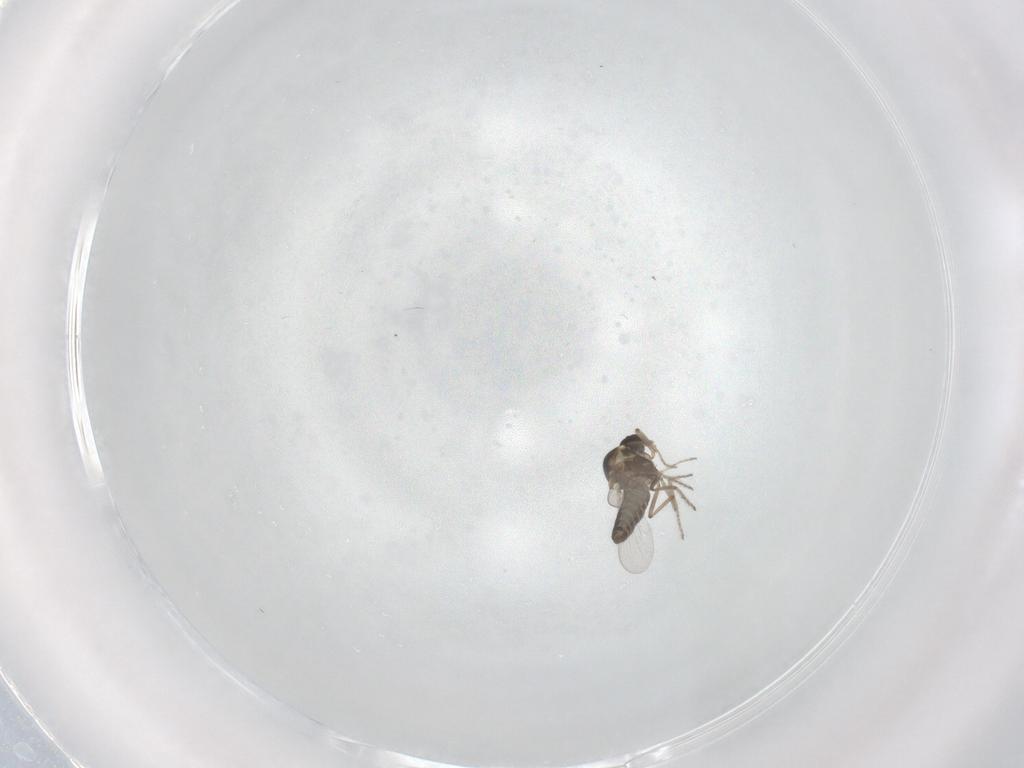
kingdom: Animalia
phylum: Arthropoda
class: Insecta
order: Diptera
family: Ceratopogonidae
